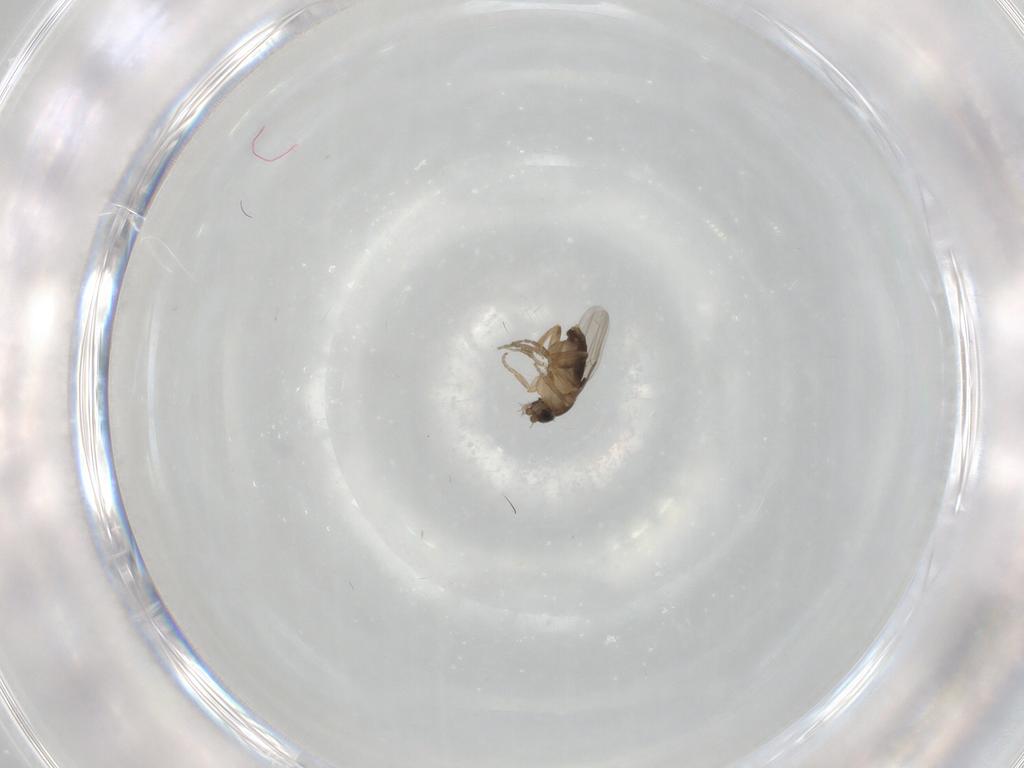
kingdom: Animalia
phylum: Arthropoda
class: Insecta
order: Diptera
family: Phoridae
